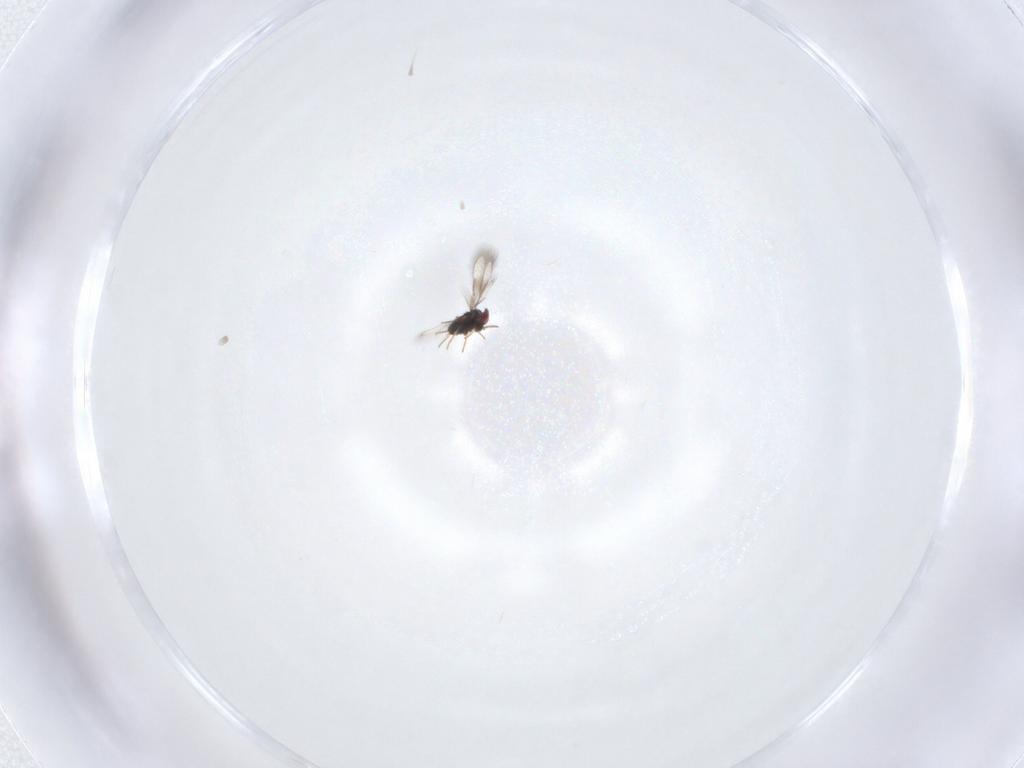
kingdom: Animalia
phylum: Arthropoda
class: Insecta
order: Hymenoptera
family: Azotidae
